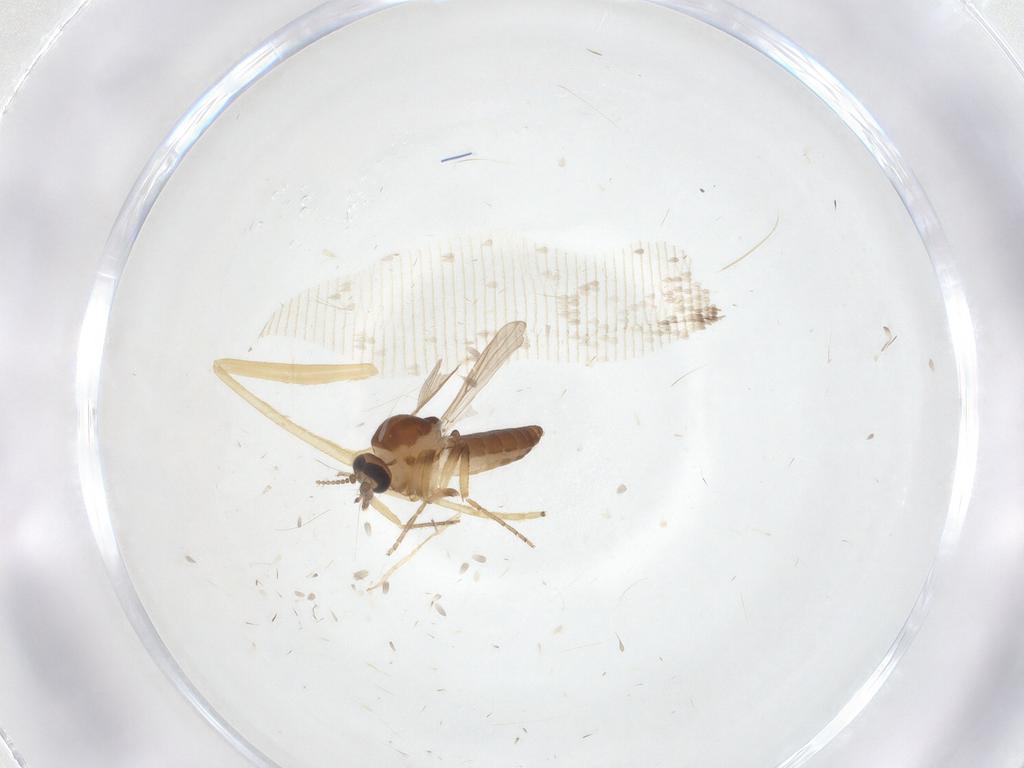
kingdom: Animalia
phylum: Arthropoda
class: Insecta
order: Diptera
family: Ceratopogonidae
